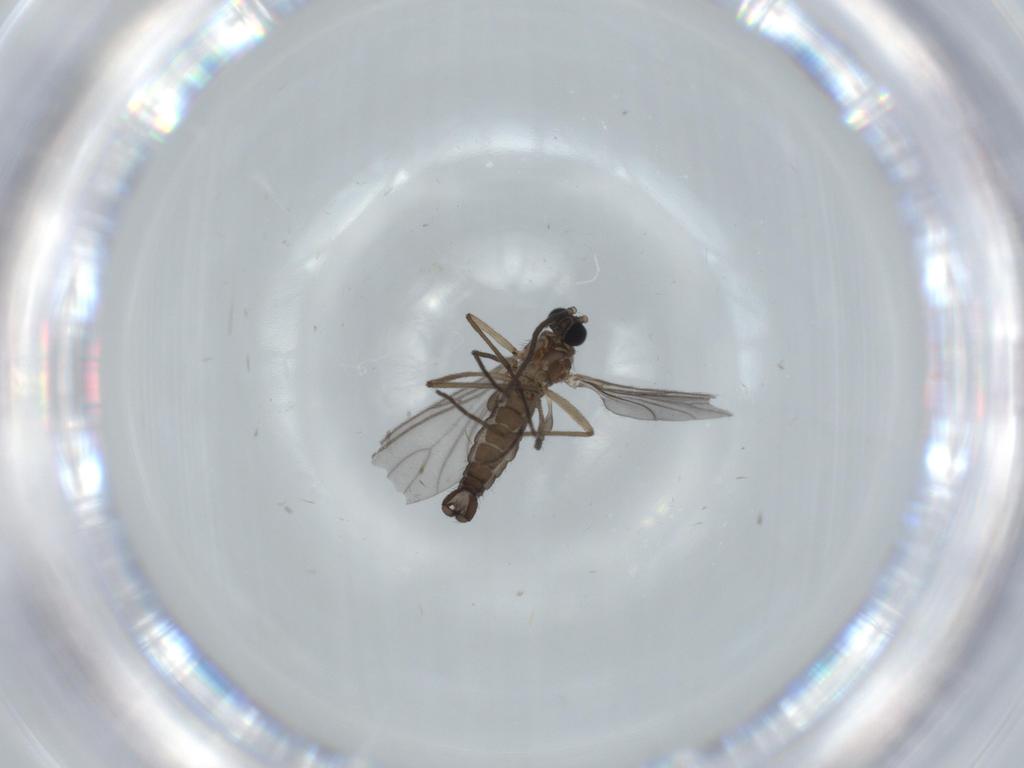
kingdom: Animalia
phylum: Arthropoda
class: Insecta
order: Diptera
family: Sciaridae
